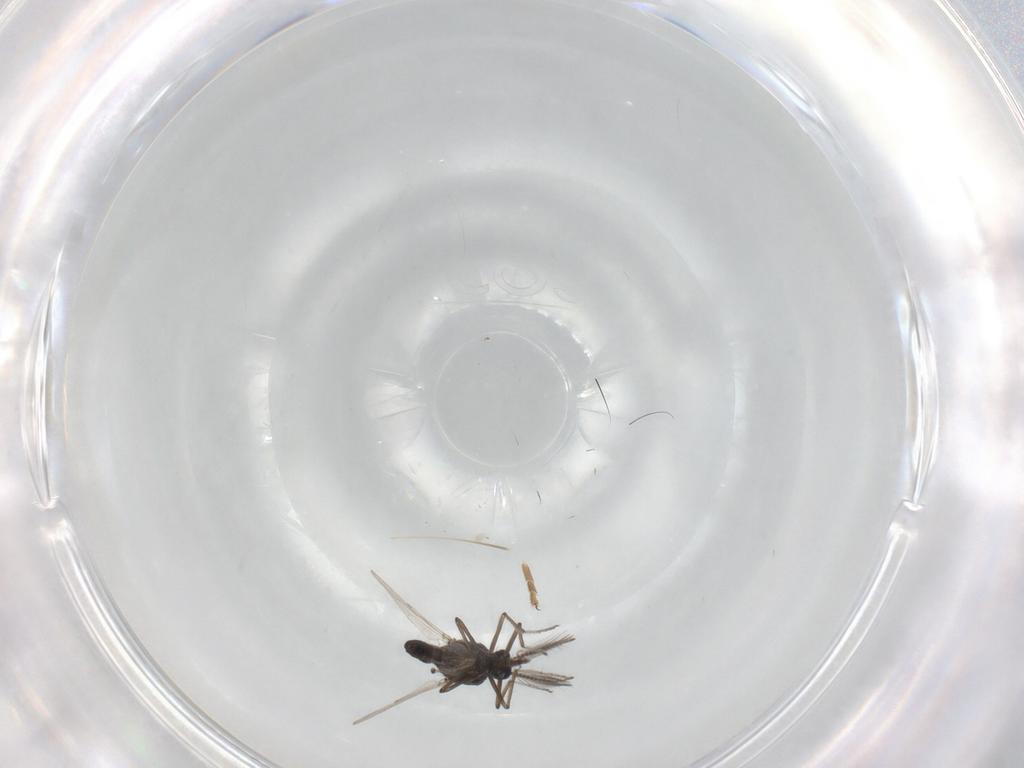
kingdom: Animalia
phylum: Arthropoda
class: Insecta
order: Diptera
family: Ceratopogonidae
